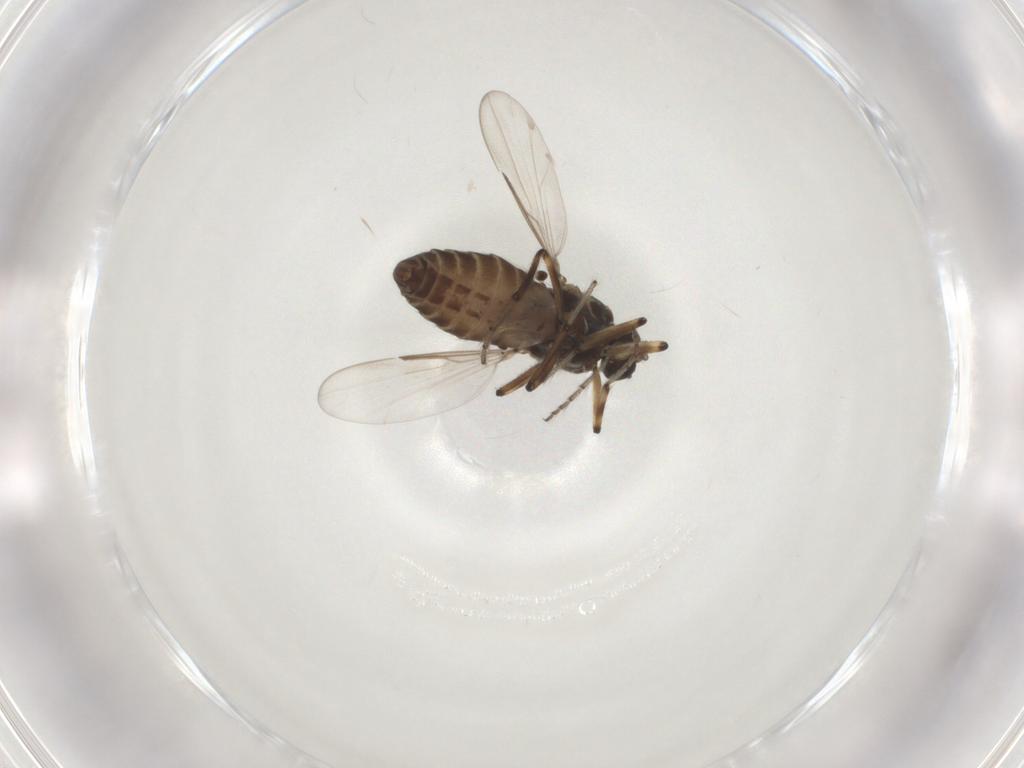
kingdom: Animalia
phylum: Arthropoda
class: Insecta
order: Diptera
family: Ceratopogonidae
